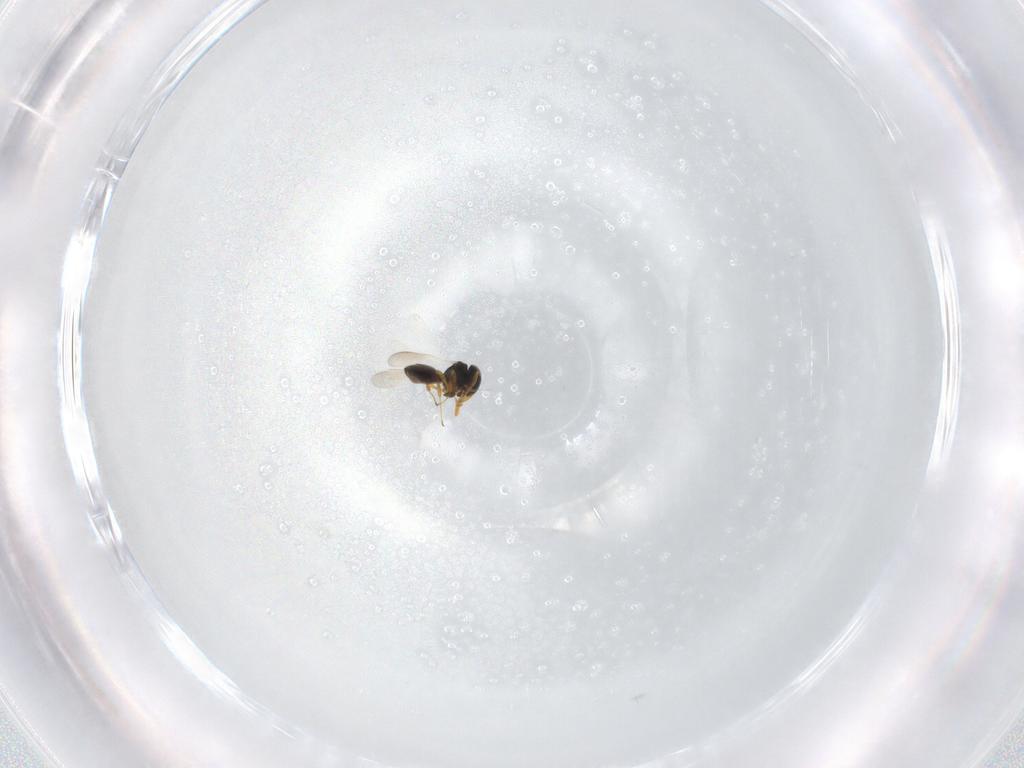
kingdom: Animalia
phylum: Arthropoda
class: Insecta
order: Hymenoptera
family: Platygastridae
